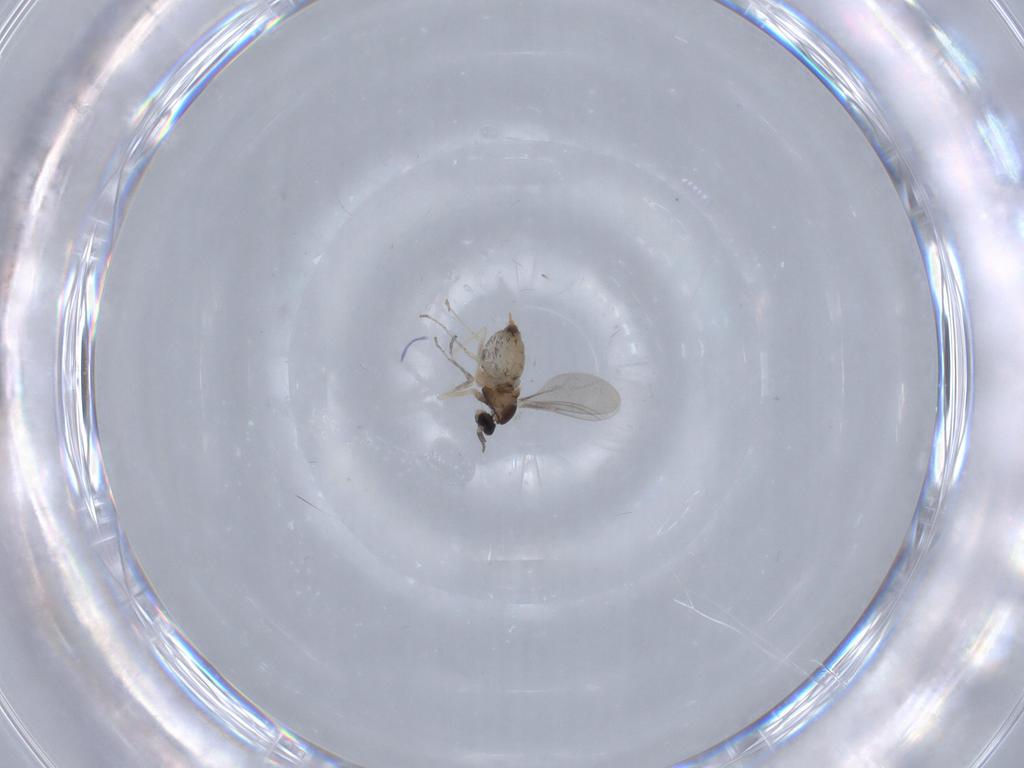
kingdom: Animalia
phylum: Arthropoda
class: Insecta
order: Diptera
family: Cecidomyiidae
